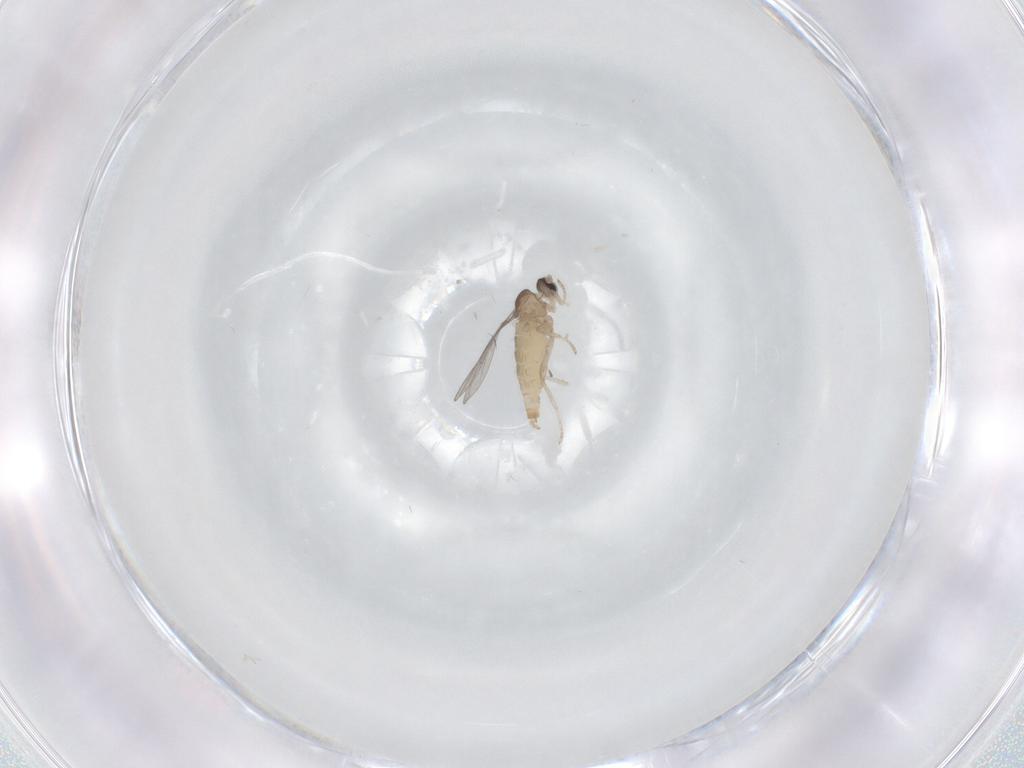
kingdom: Animalia
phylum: Arthropoda
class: Insecta
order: Diptera
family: Cecidomyiidae
